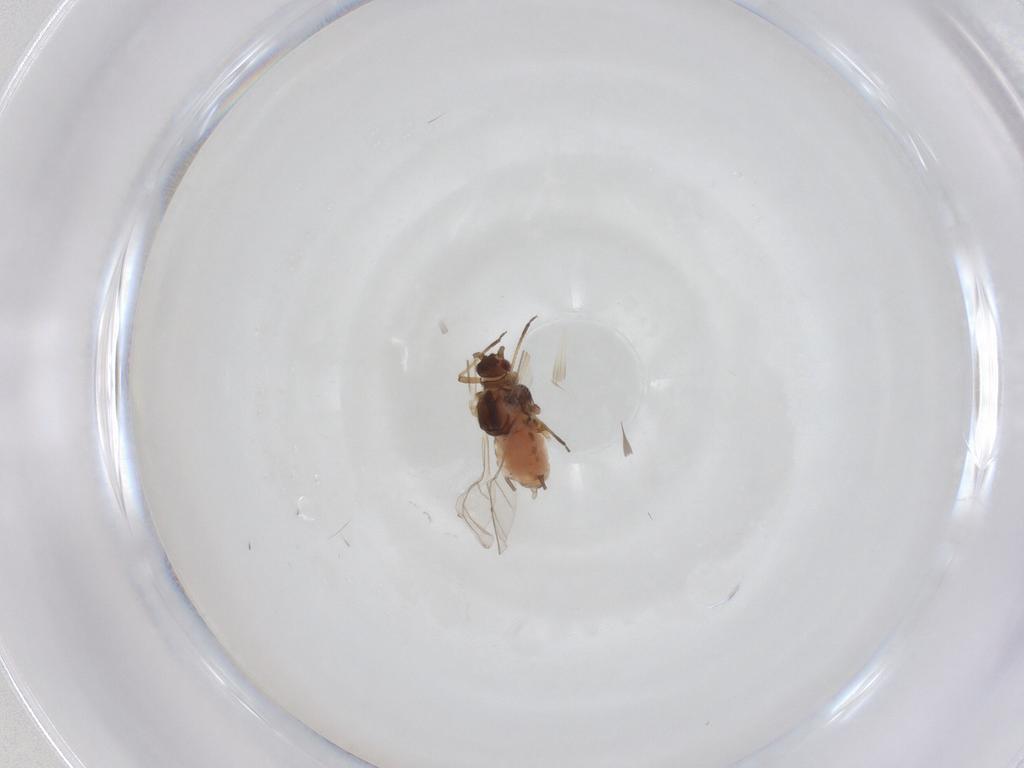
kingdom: Animalia
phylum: Arthropoda
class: Insecta
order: Hemiptera
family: Aphididae
